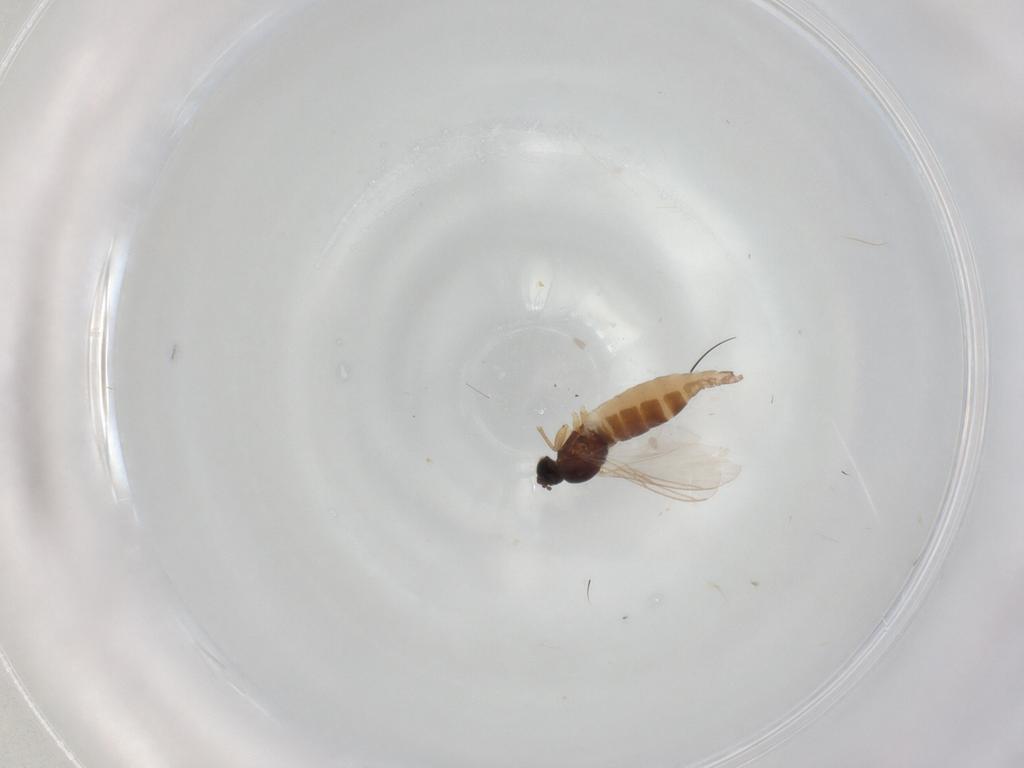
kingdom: Animalia
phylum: Arthropoda
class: Insecta
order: Diptera
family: Sciaridae
